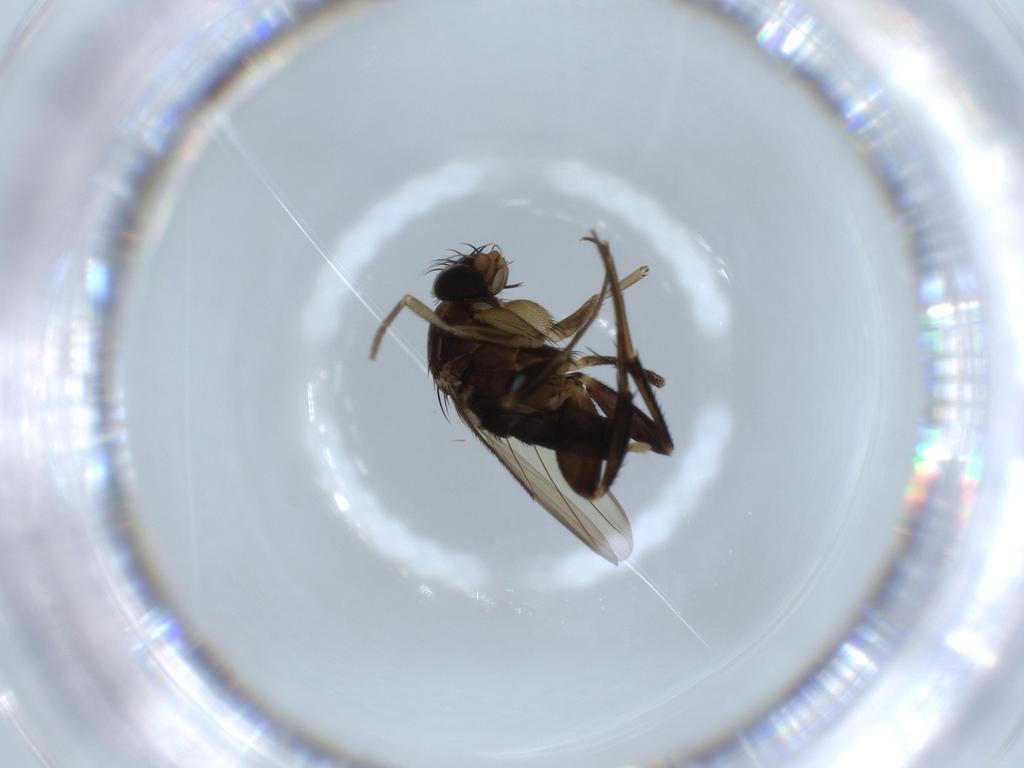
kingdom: Animalia
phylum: Arthropoda
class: Insecta
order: Diptera
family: Chironomidae
